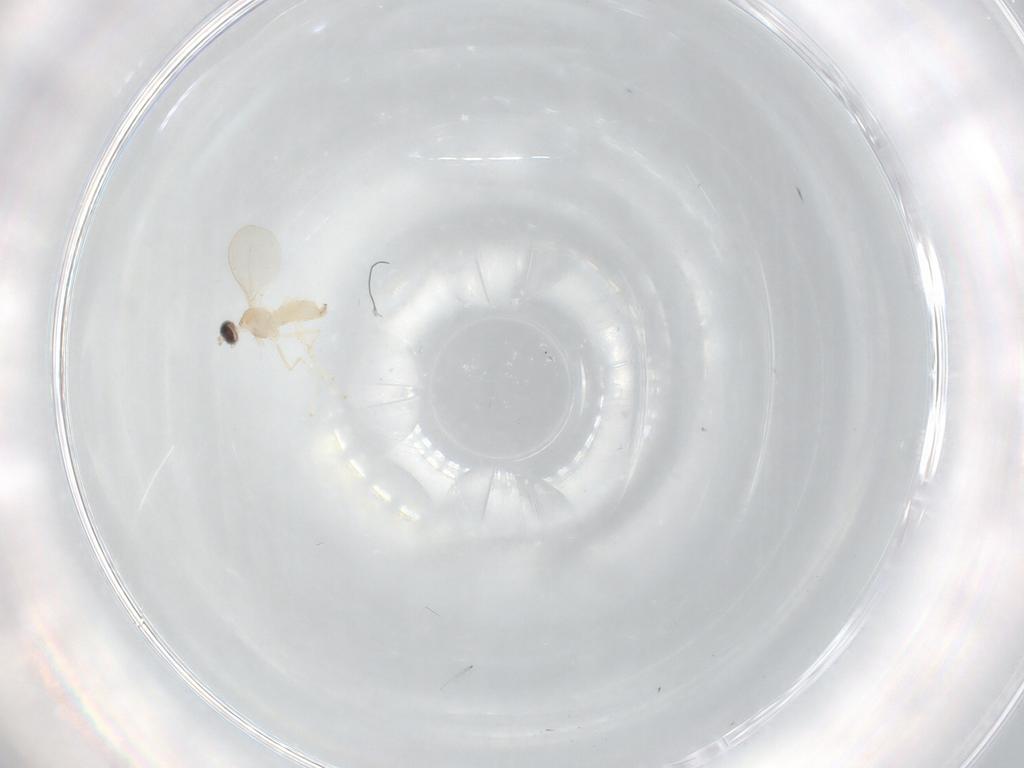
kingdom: Animalia
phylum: Arthropoda
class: Insecta
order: Diptera
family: Cecidomyiidae
